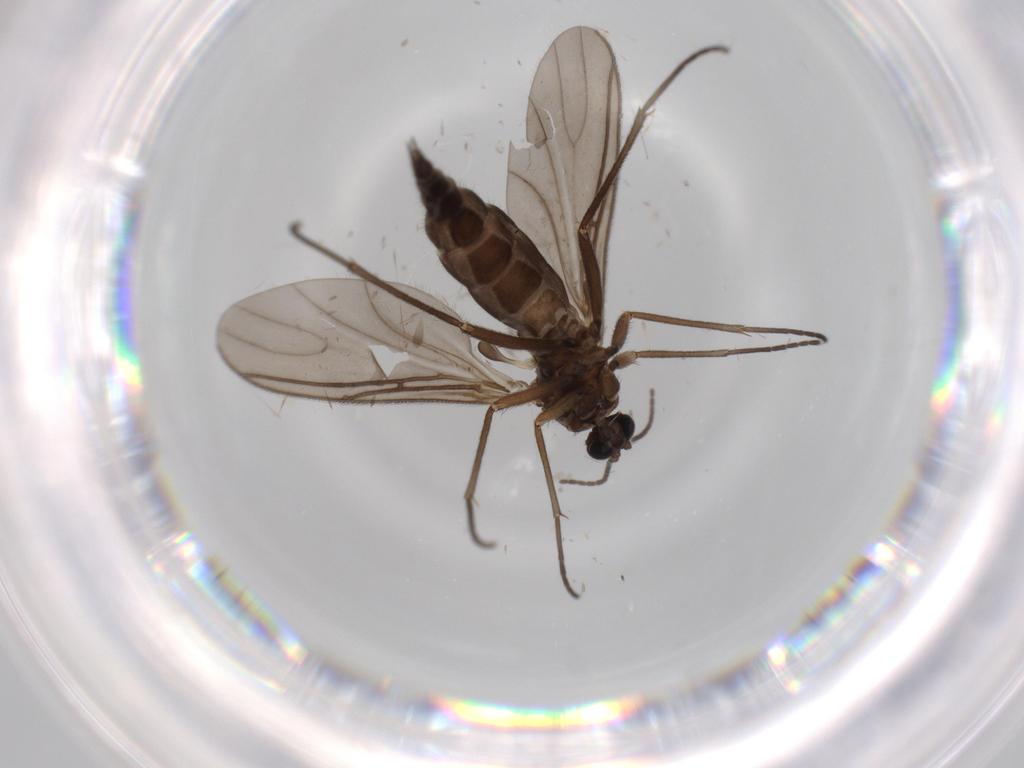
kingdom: Animalia
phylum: Arthropoda
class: Insecta
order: Diptera
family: Sciaridae
